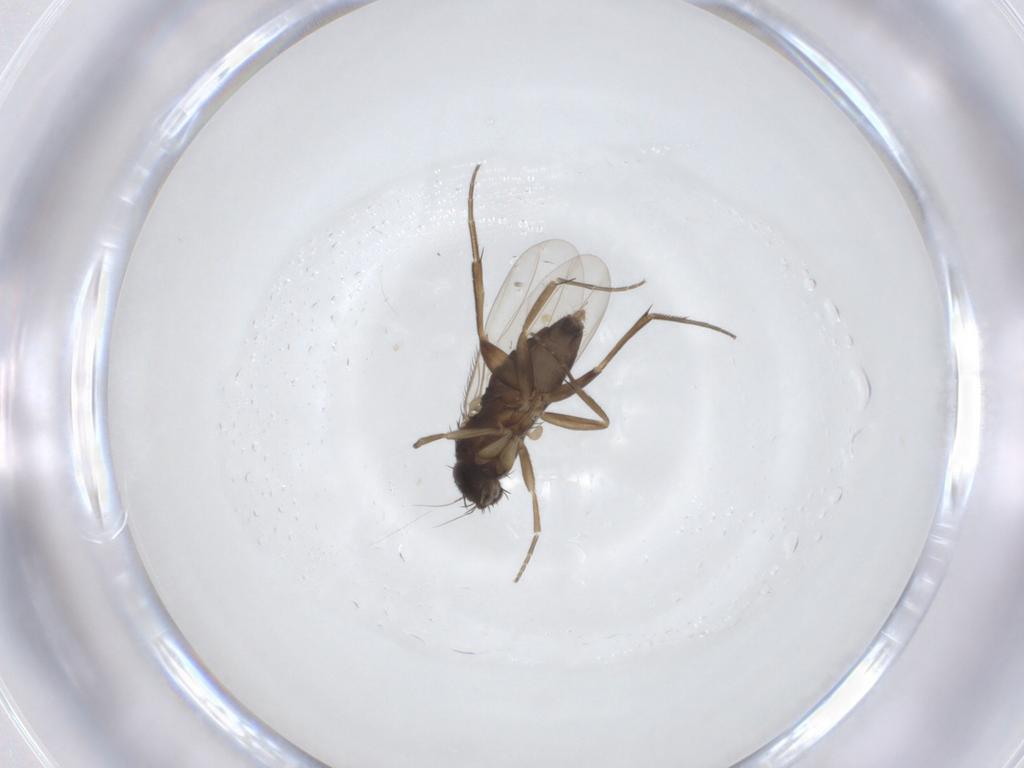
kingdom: Animalia
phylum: Arthropoda
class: Insecta
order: Diptera
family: Phoridae
